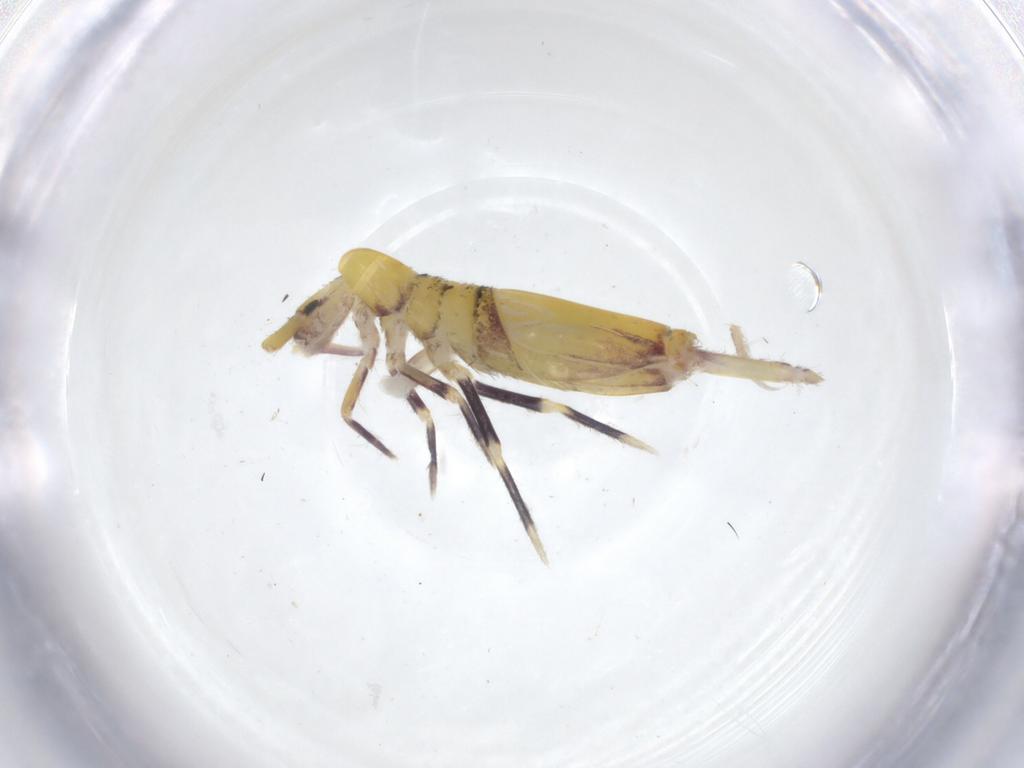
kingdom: Animalia
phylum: Arthropoda
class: Collembola
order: Entomobryomorpha
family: Entomobryidae
